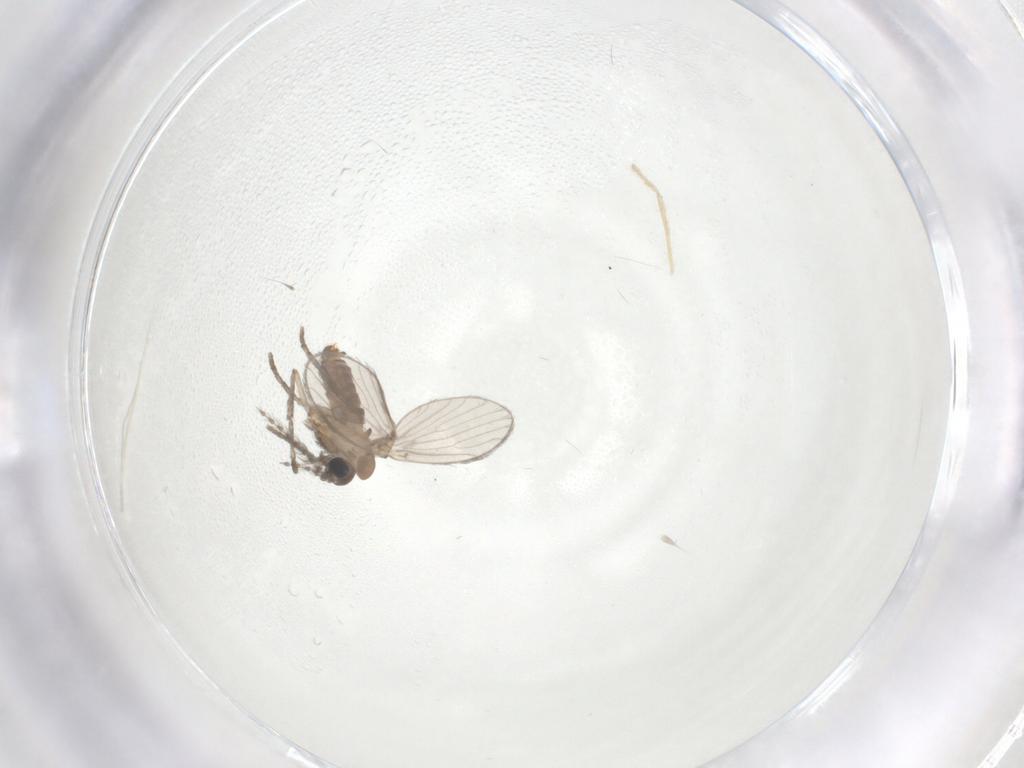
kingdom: Animalia
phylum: Arthropoda
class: Insecta
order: Diptera
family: Psychodidae
